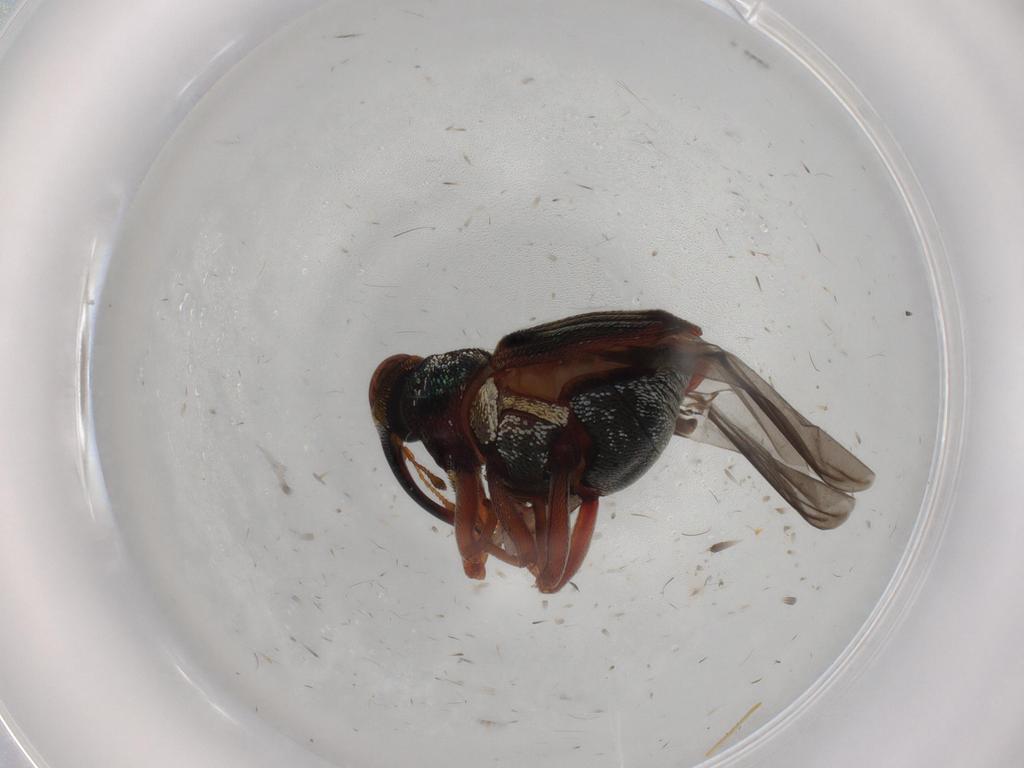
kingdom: Animalia
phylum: Arthropoda
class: Insecta
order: Coleoptera
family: Curculionidae
